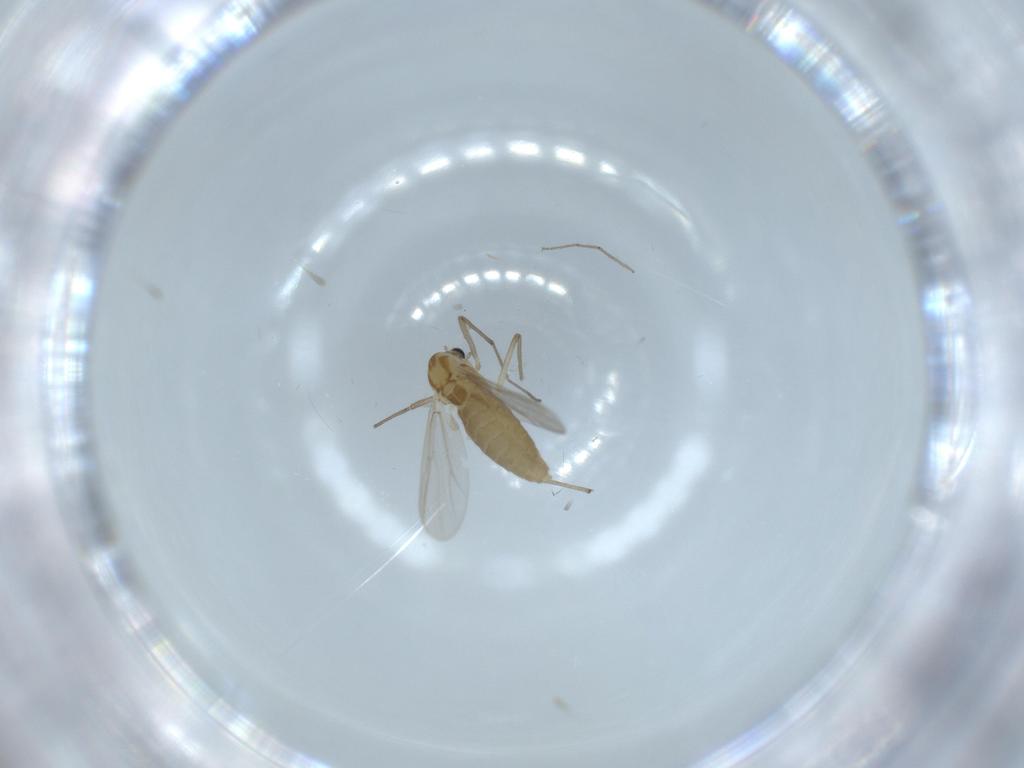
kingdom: Animalia
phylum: Arthropoda
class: Insecta
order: Diptera
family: Chironomidae
